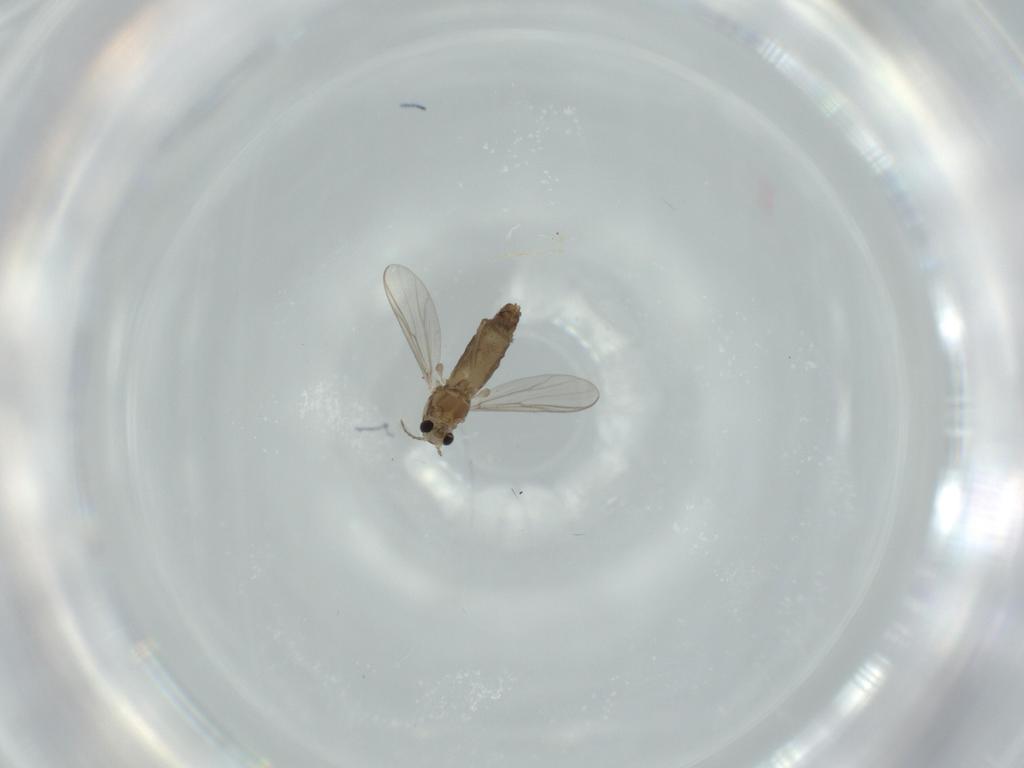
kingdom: Animalia
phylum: Arthropoda
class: Insecta
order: Diptera
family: Chironomidae
